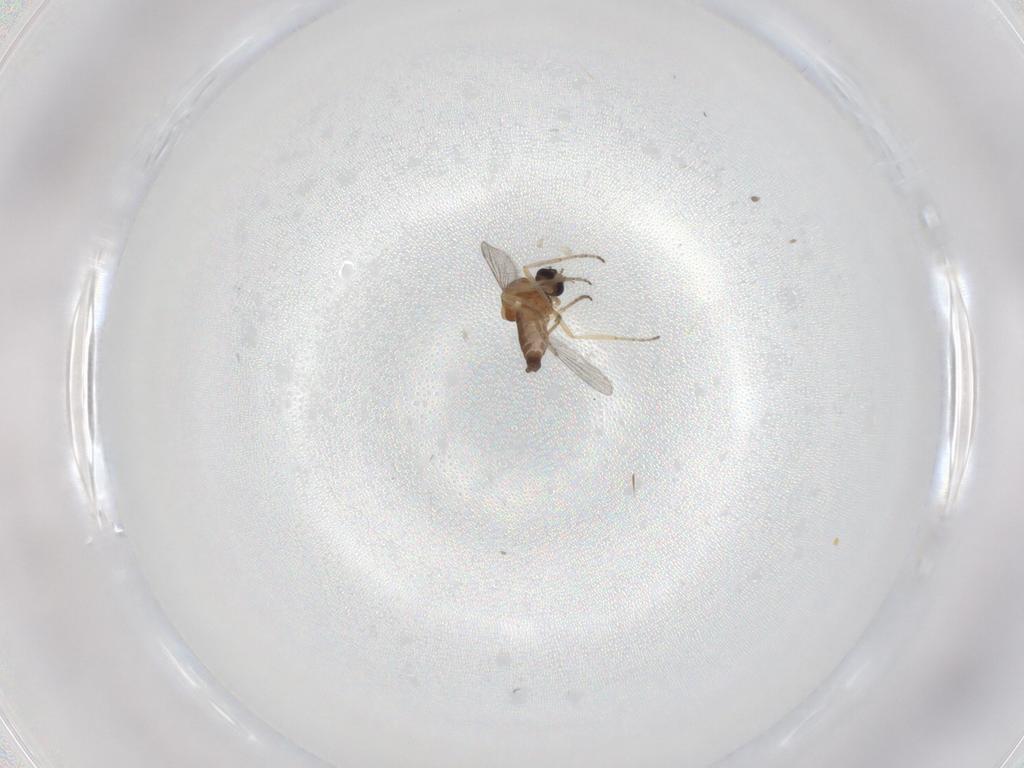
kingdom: Animalia
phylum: Arthropoda
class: Insecta
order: Diptera
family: Ceratopogonidae
